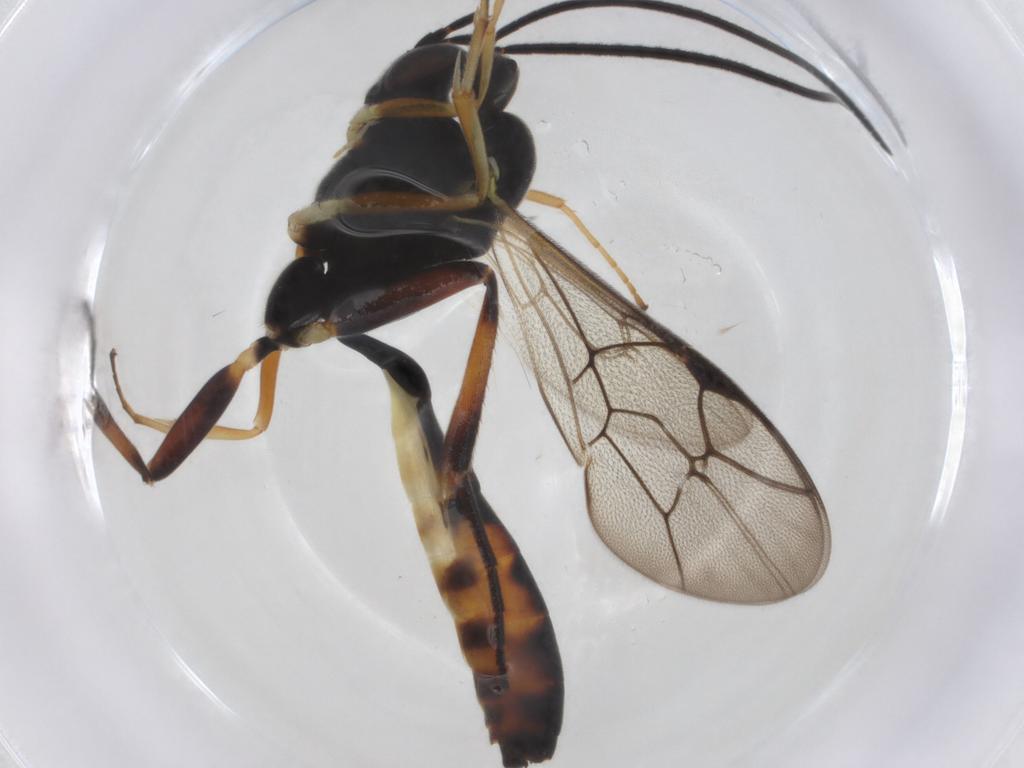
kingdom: Animalia
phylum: Arthropoda
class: Insecta
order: Hymenoptera
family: Ichneumonidae
